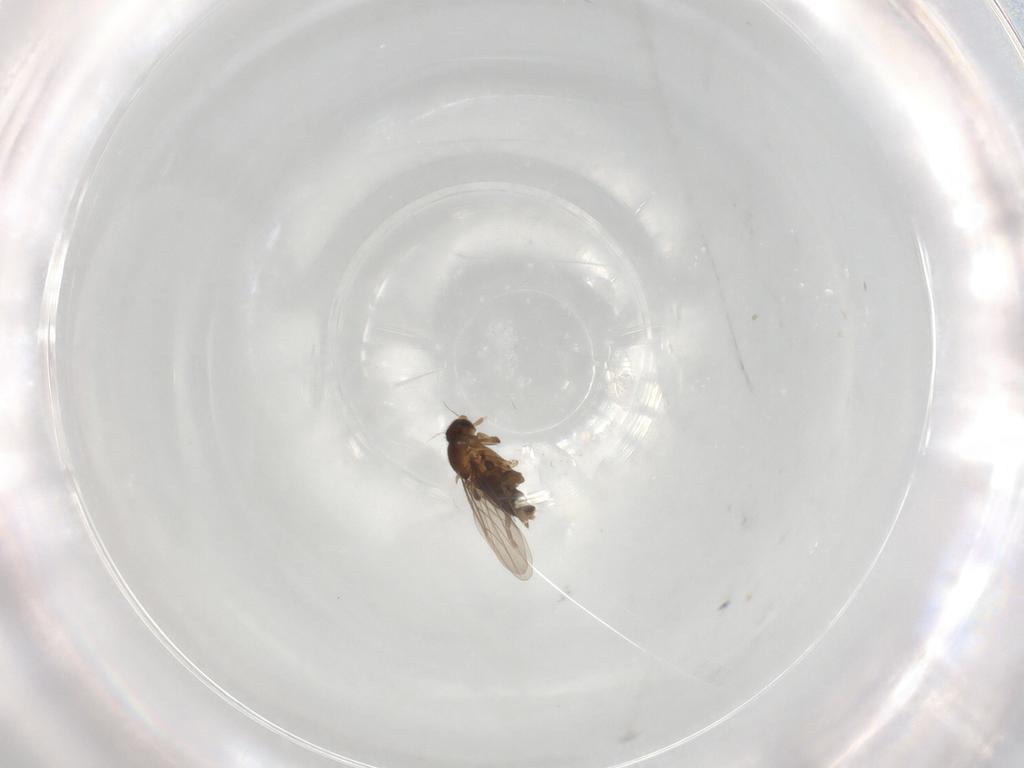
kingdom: Animalia
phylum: Arthropoda
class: Insecta
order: Diptera
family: Phoridae
